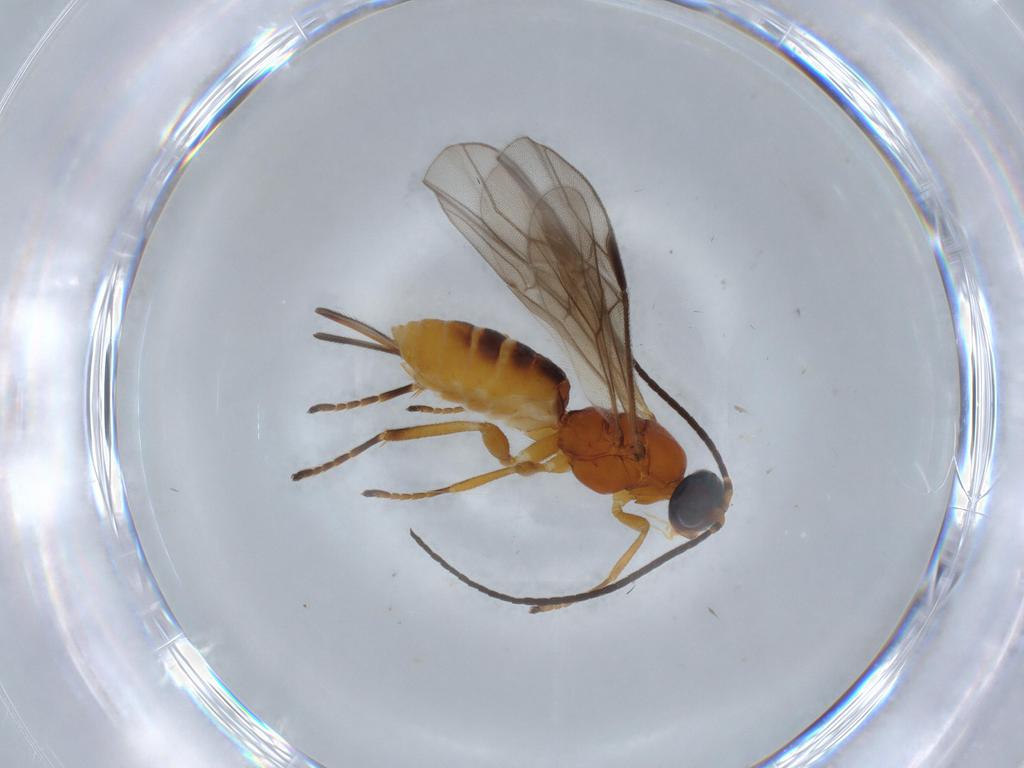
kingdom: Animalia
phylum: Arthropoda
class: Insecta
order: Hymenoptera
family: Braconidae
